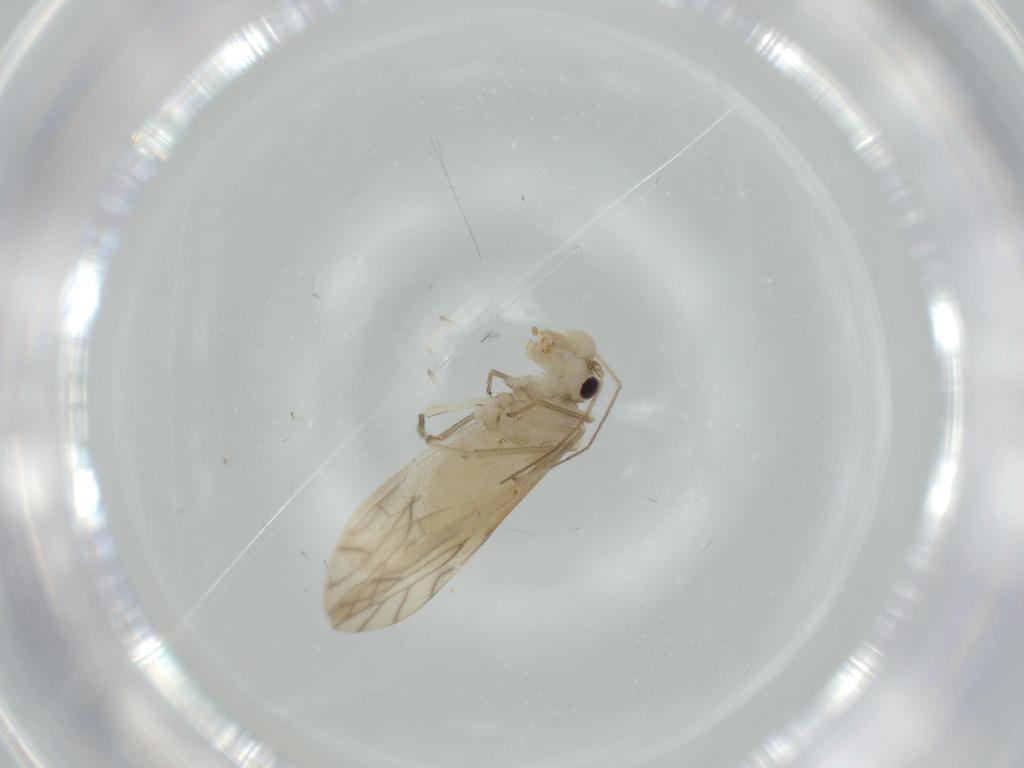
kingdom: Animalia
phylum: Arthropoda
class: Insecta
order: Psocodea
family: Caeciliusidae
